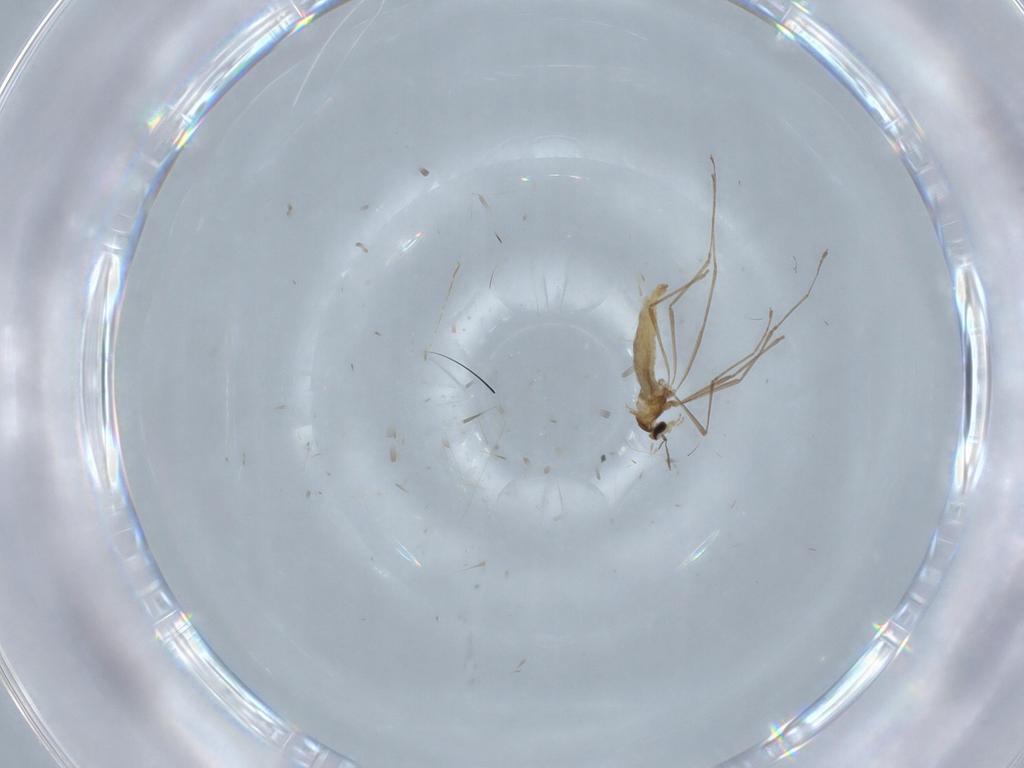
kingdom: Animalia
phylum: Arthropoda
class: Insecta
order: Diptera
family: Cecidomyiidae
